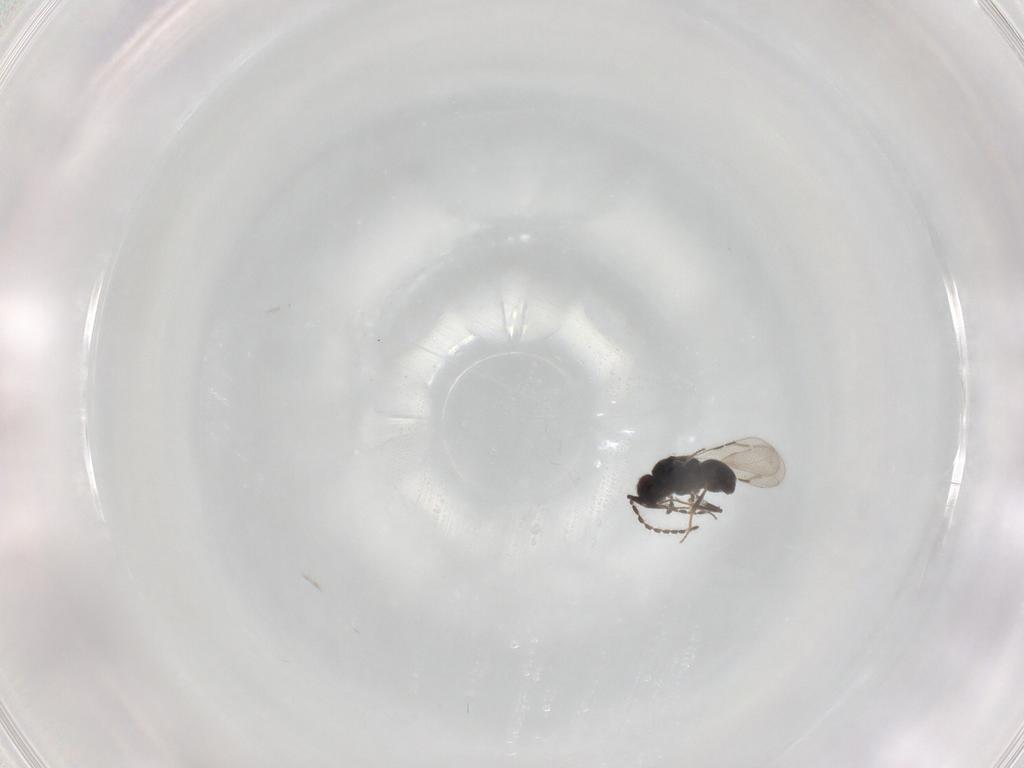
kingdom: Animalia
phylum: Arthropoda
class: Insecta
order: Hymenoptera
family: Ceraphronidae
